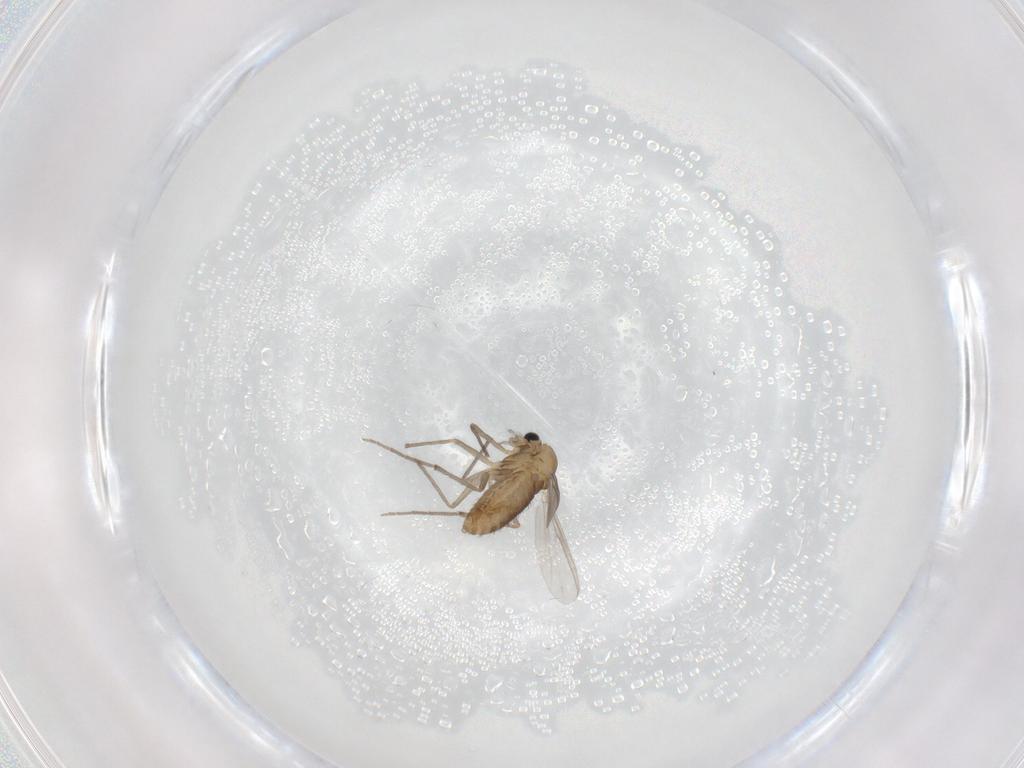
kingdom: Animalia
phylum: Arthropoda
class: Insecta
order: Diptera
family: Chironomidae
